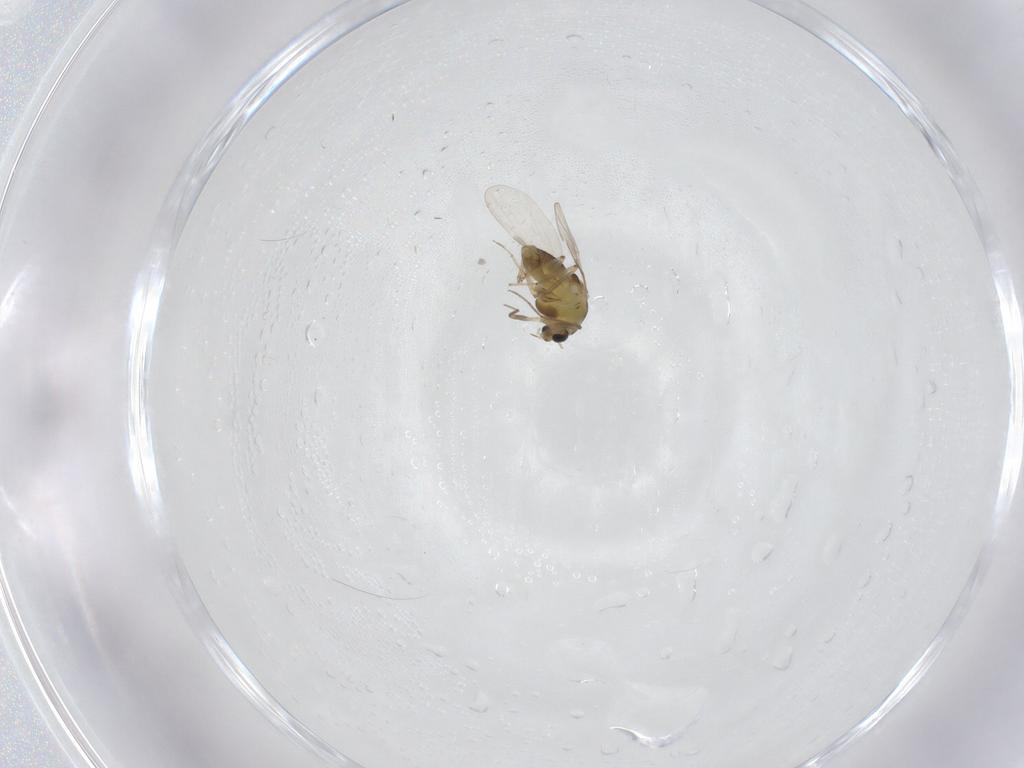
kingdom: Animalia
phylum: Arthropoda
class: Insecta
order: Diptera
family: Chironomidae
